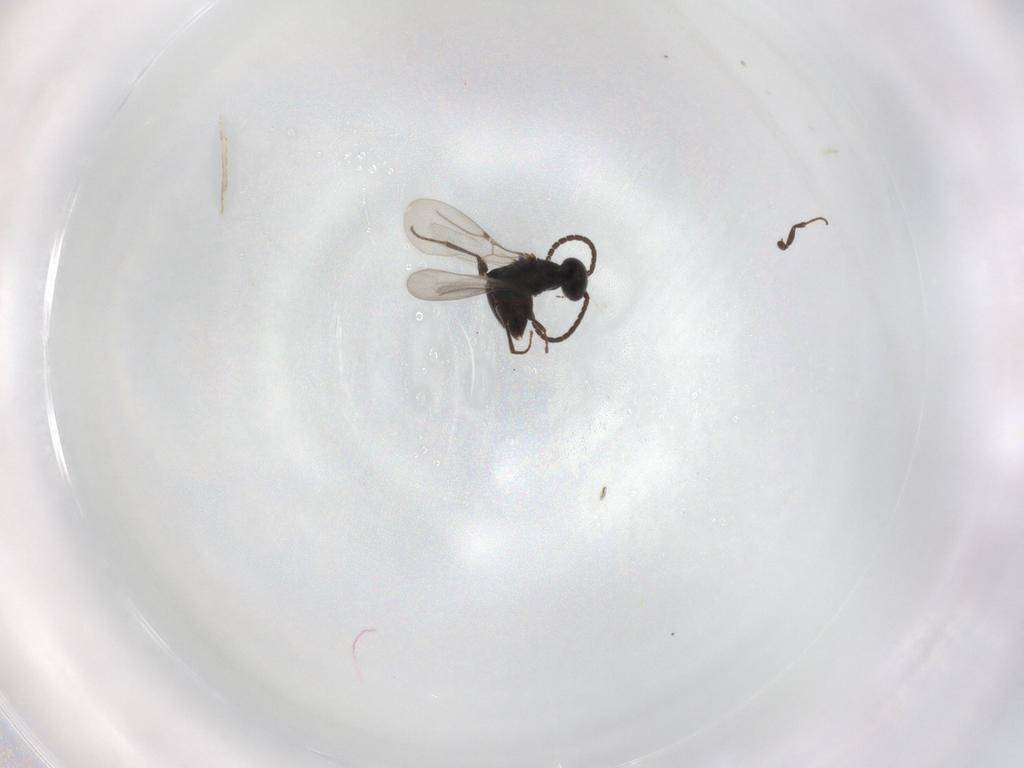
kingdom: Animalia
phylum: Arthropoda
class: Insecta
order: Hymenoptera
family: Bethylidae
